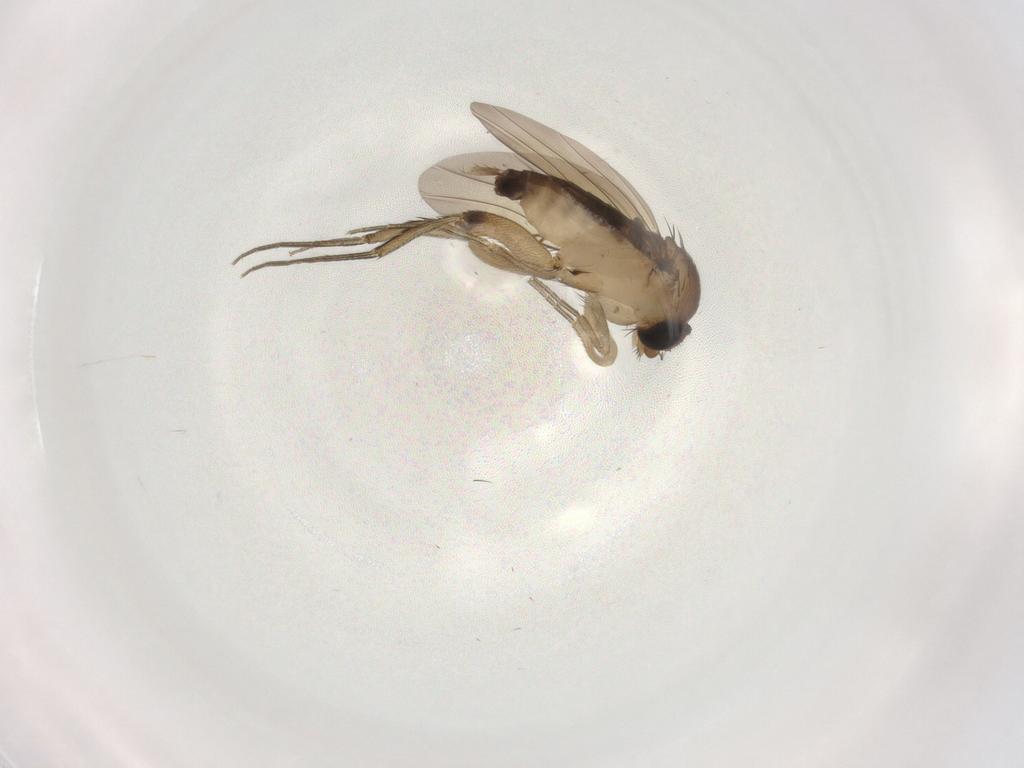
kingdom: Animalia
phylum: Arthropoda
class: Insecta
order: Diptera
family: Phoridae
